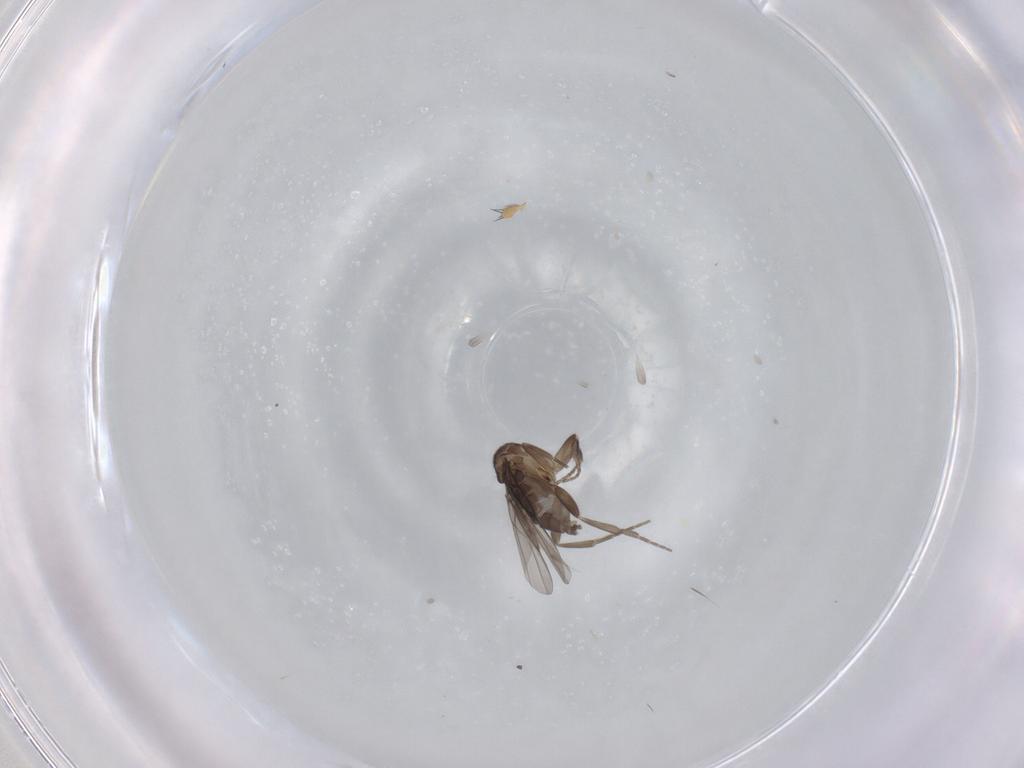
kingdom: Animalia
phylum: Arthropoda
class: Insecta
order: Diptera
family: Phoridae
